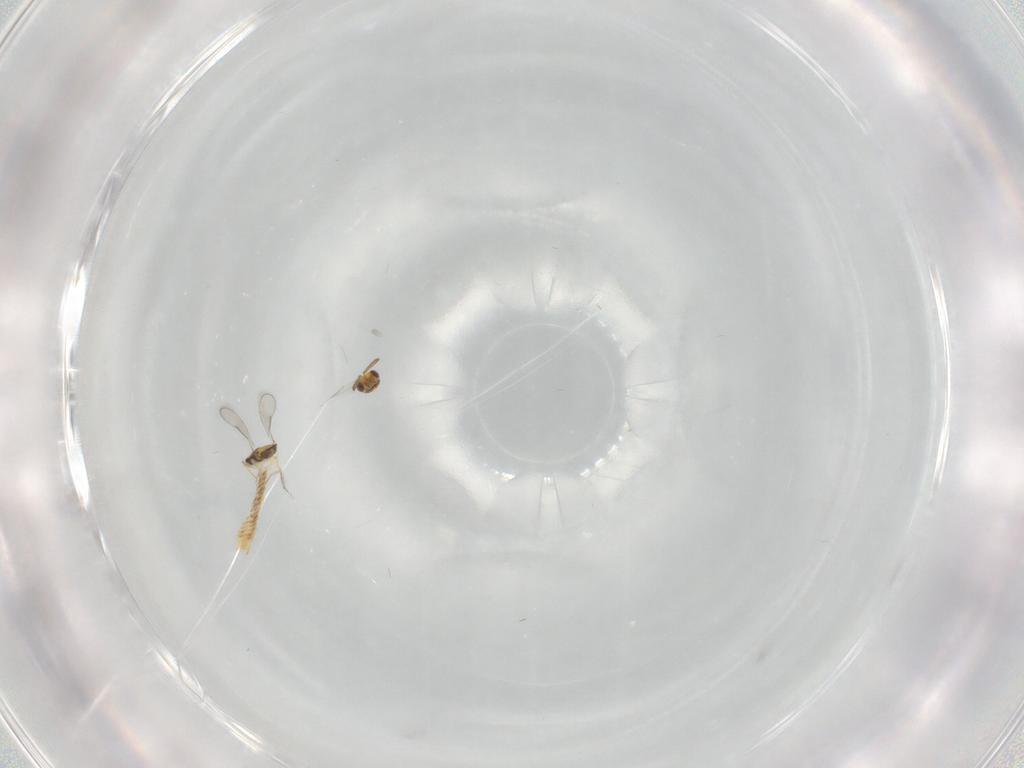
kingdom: Animalia
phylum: Arthropoda
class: Insecta
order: Hymenoptera
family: Aphelinidae
